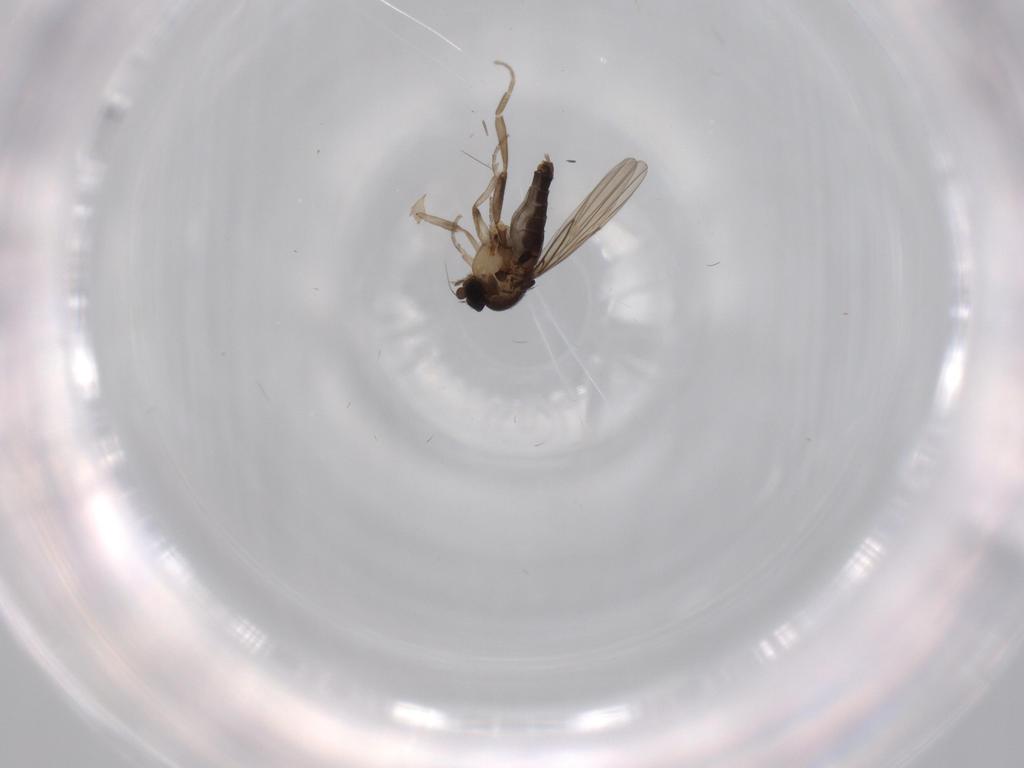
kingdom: Animalia
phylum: Arthropoda
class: Insecta
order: Diptera
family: Phoridae
